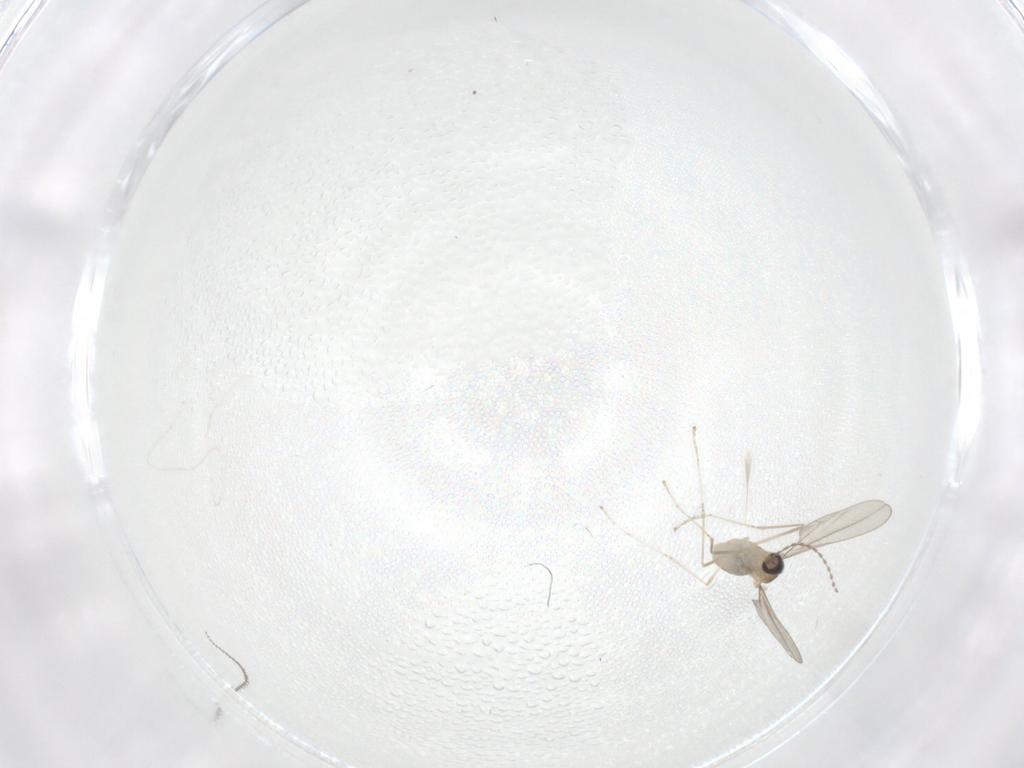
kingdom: Animalia
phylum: Arthropoda
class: Insecta
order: Diptera
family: Cecidomyiidae
